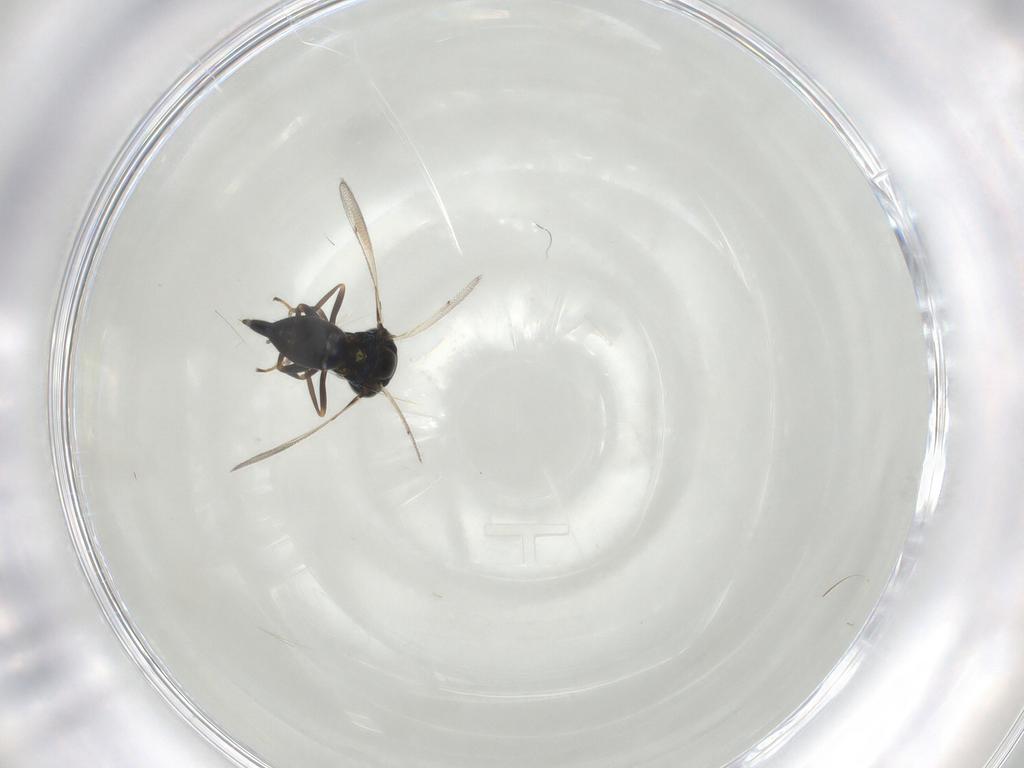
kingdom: Animalia
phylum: Arthropoda
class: Insecta
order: Hymenoptera
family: Eulophidae
